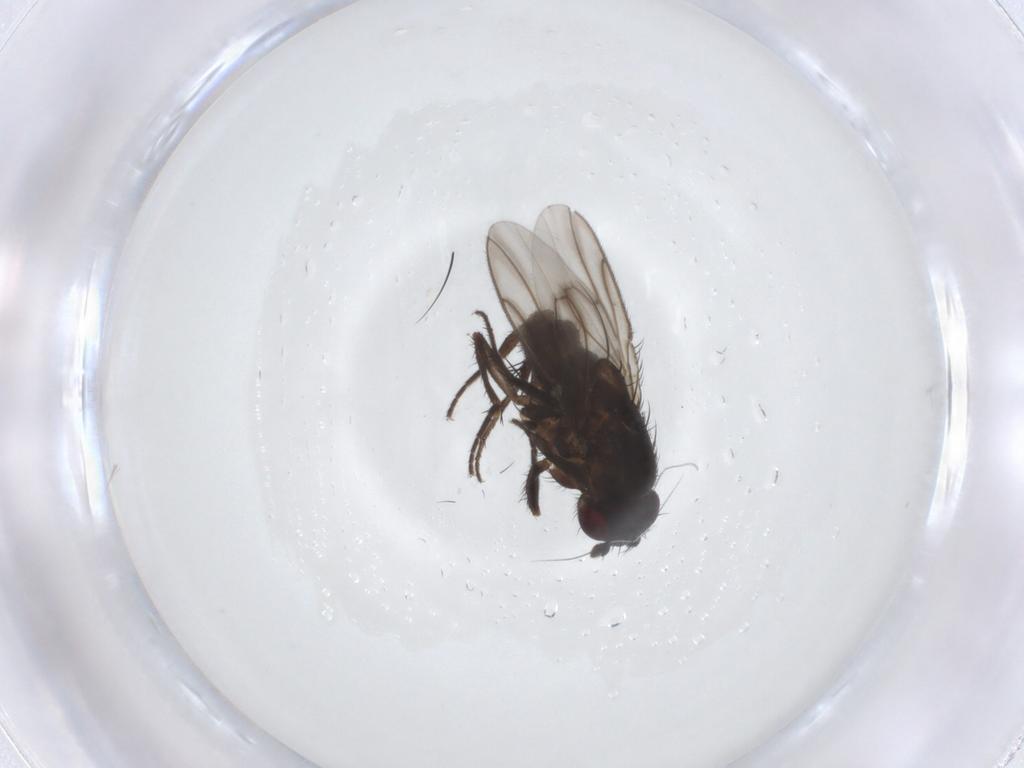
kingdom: Animalia
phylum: Arthropoda
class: Insecta
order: Diptera
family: Sphaeroceridae
